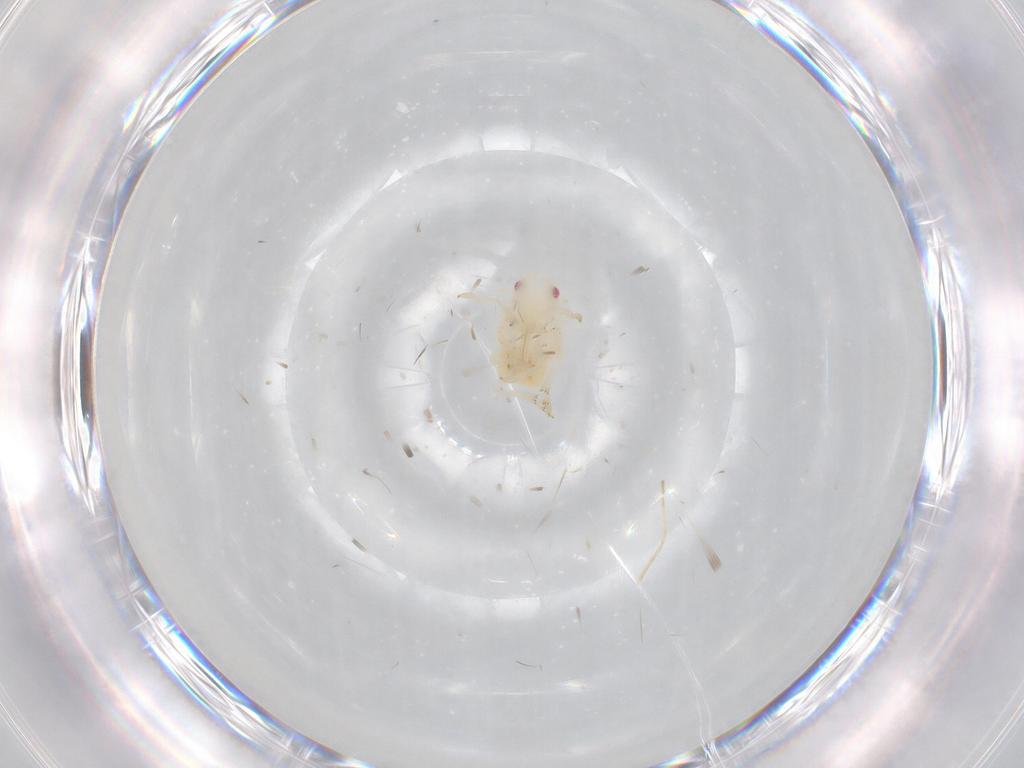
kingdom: Animalia
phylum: Arthropoda
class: Insecta
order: Hemiptera
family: Flatidae
